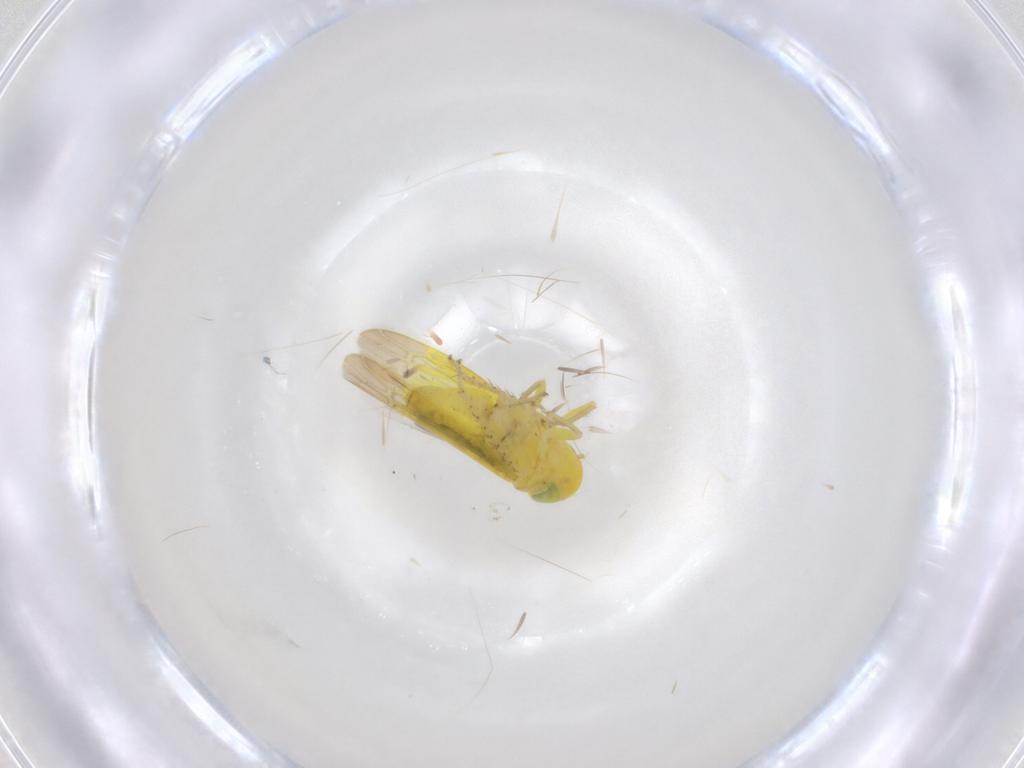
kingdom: Animalia
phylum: Arthropoda
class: Insecta
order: Hemiptera
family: Cicadellidae
